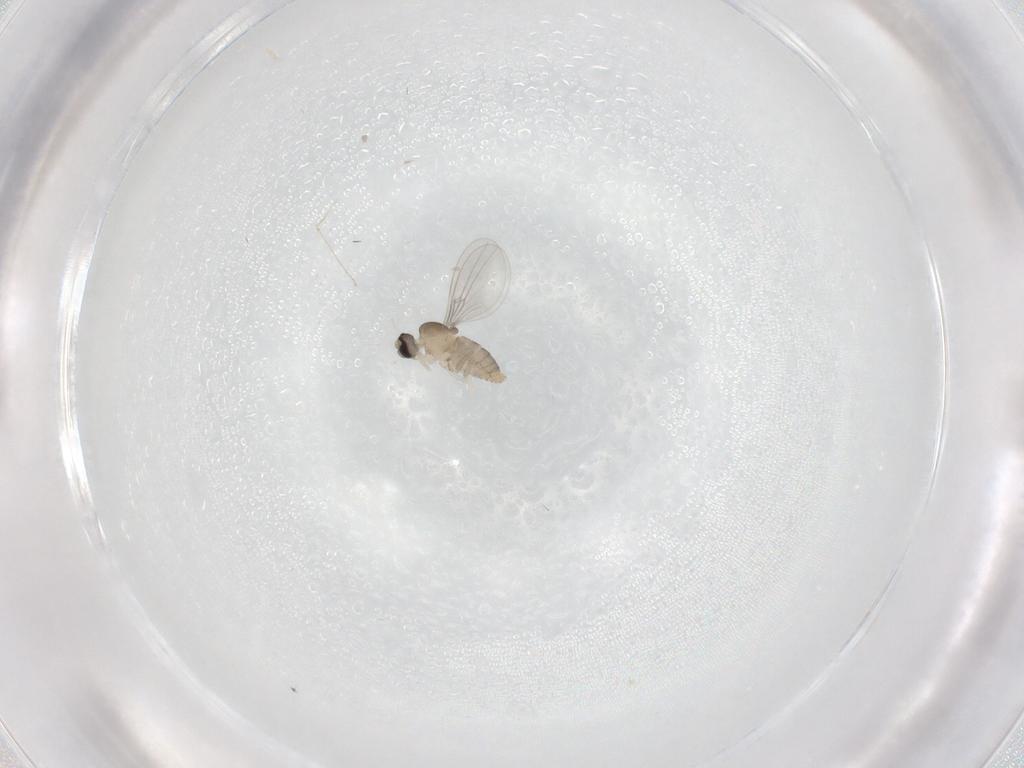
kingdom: Animalia
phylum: Arthropoda
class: Insecta
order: Diptera
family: Cecidomyiidae
